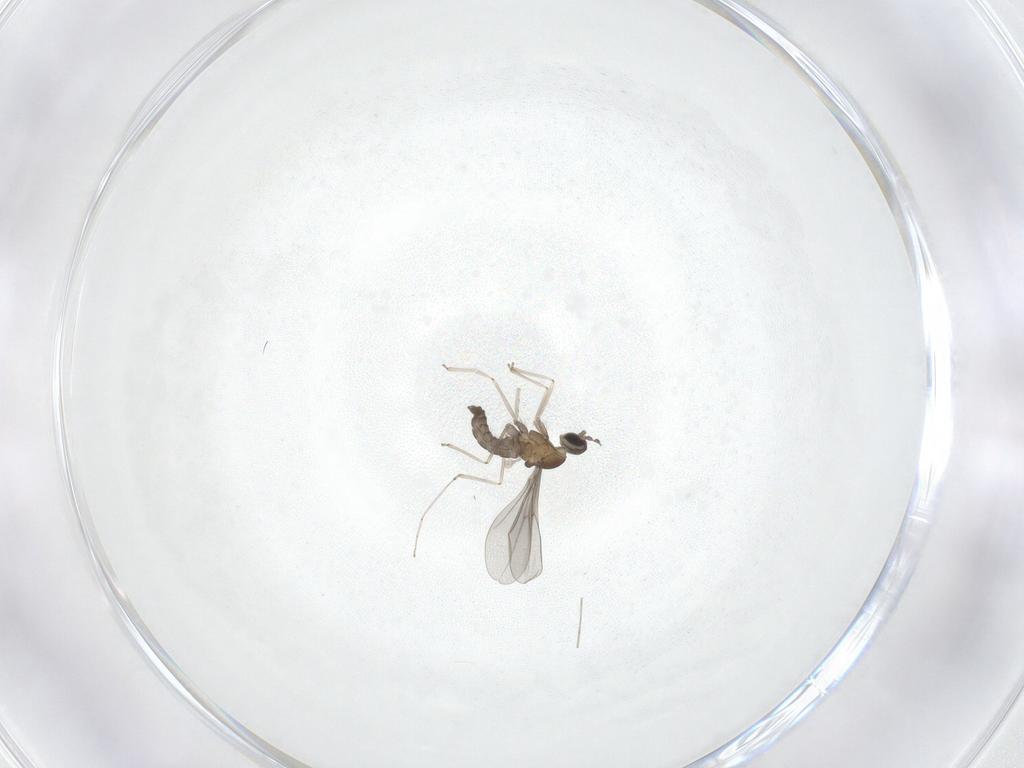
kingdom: Animalia
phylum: Arthropoda
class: Insecta
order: Diptera
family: Cecidomyiidae
